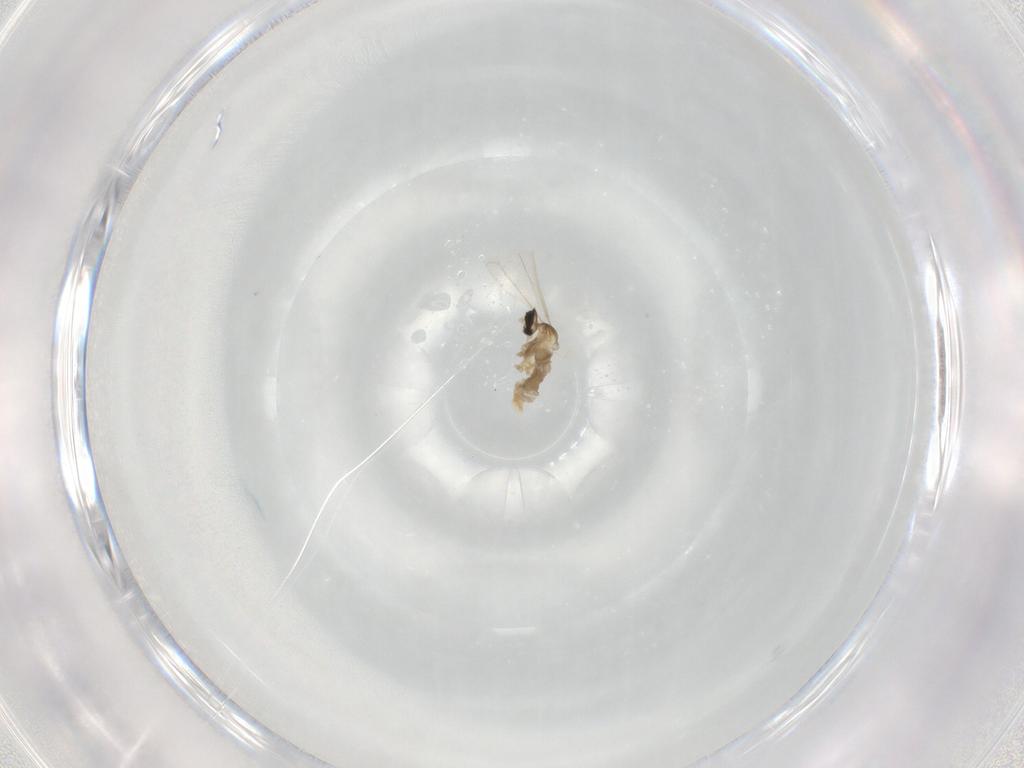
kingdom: Animalia
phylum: Arthropoda
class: Insecta
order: Diptera
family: Cecidomyiidae
